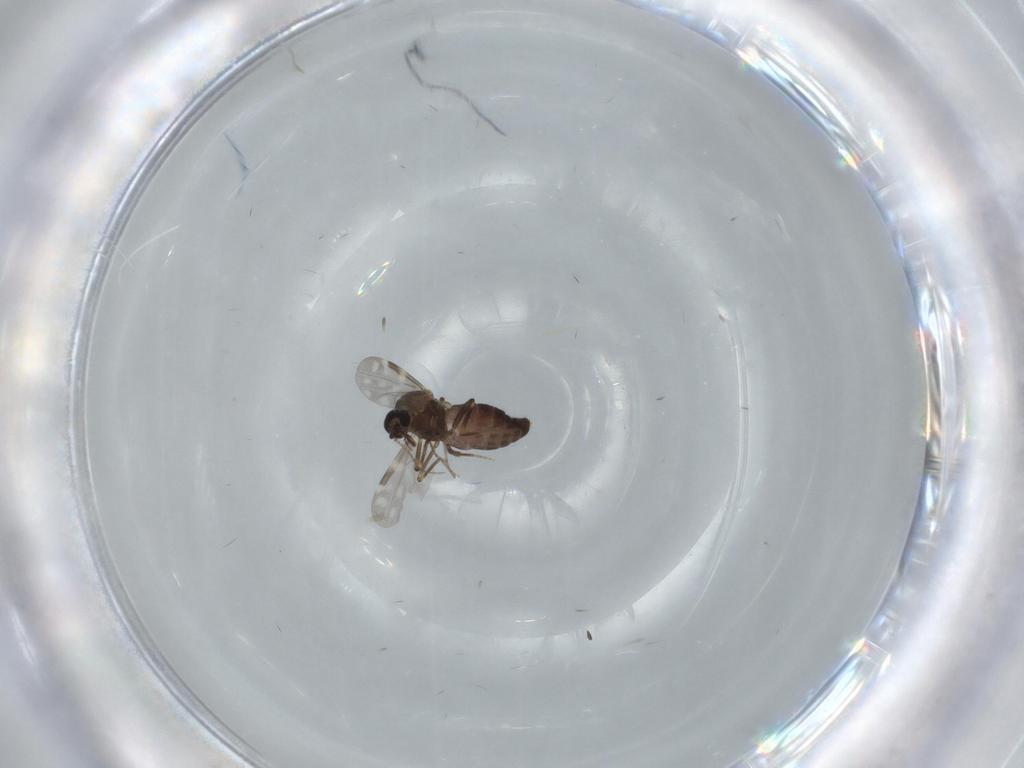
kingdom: Animalia
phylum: Arthropoda
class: Insecta
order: Diptera
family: Ceratopogonidae
